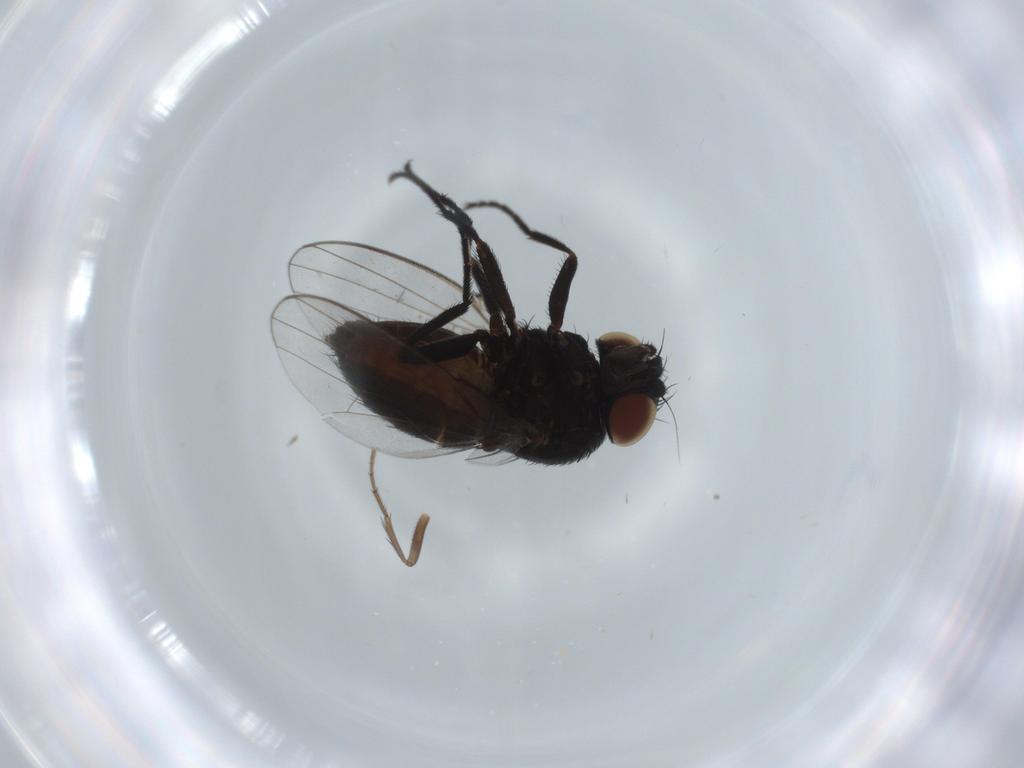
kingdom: Animalia
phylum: Arthropoda
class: Insecta
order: Diptera
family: Milichiidae
